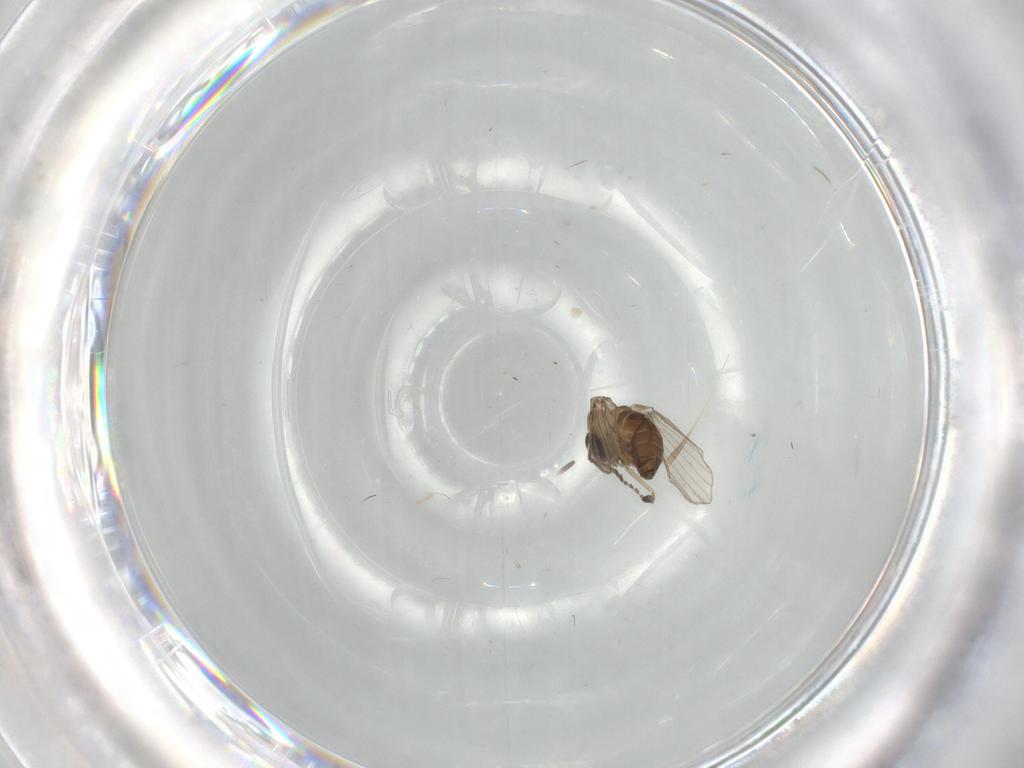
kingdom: Animalia
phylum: Arthropoda
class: Insecta
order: Diptera
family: Psychodidae
